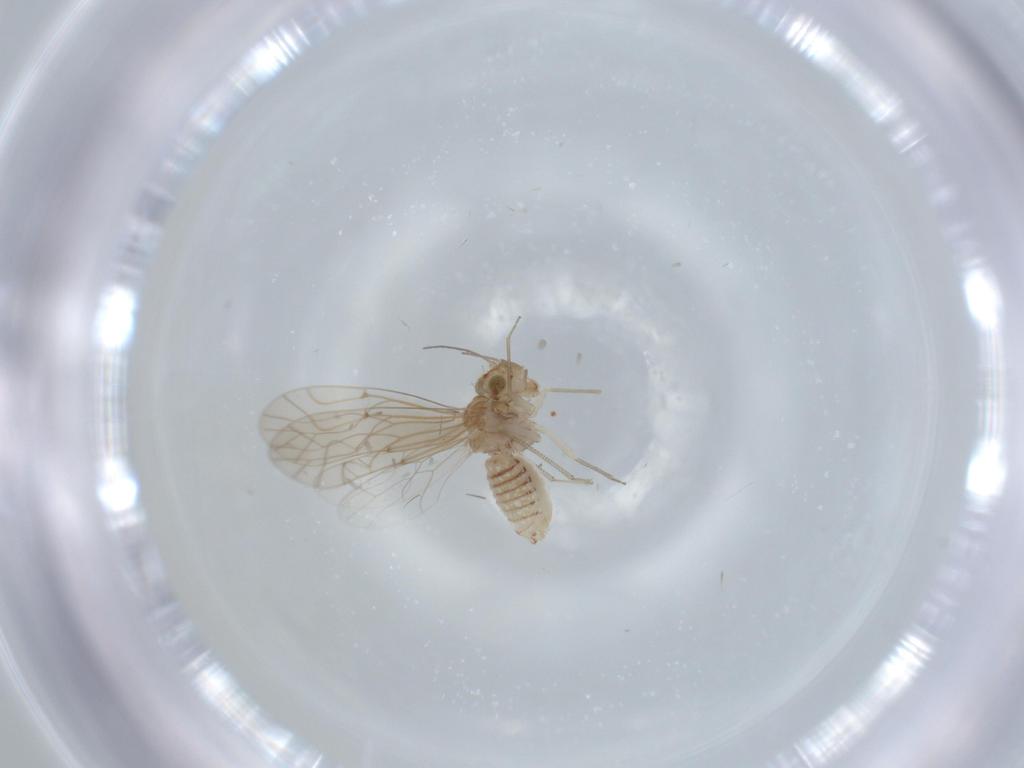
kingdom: Animalia
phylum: Arthropoda
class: Insecta
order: Psocodea
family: Lachesillidae
